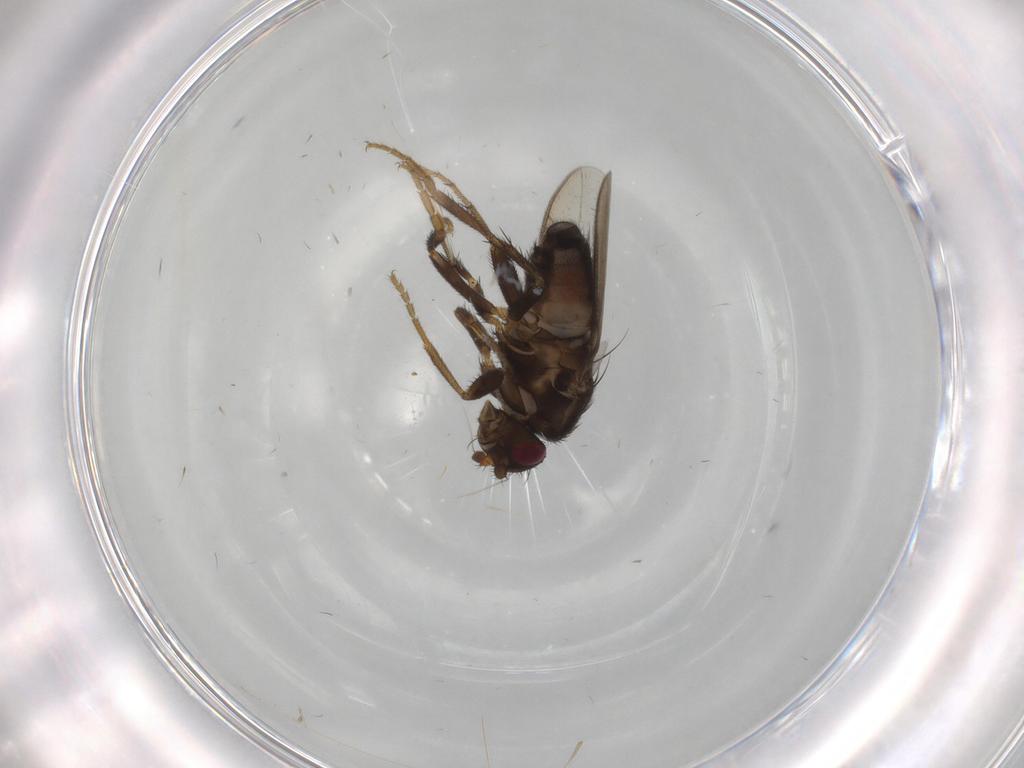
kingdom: Animalia
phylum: Arthropoda
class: Insecta
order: Diptera
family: Sphaeroceridae
